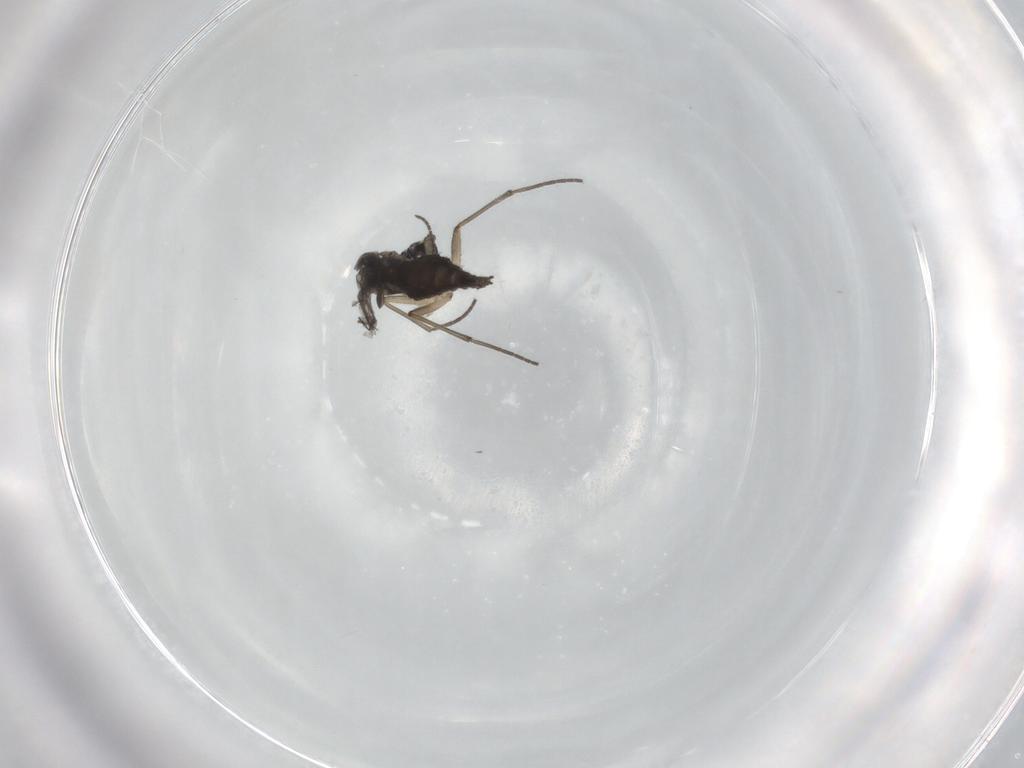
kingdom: Animalia
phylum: Arthropoda
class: Insecta
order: Diptera
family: Sciaridae
